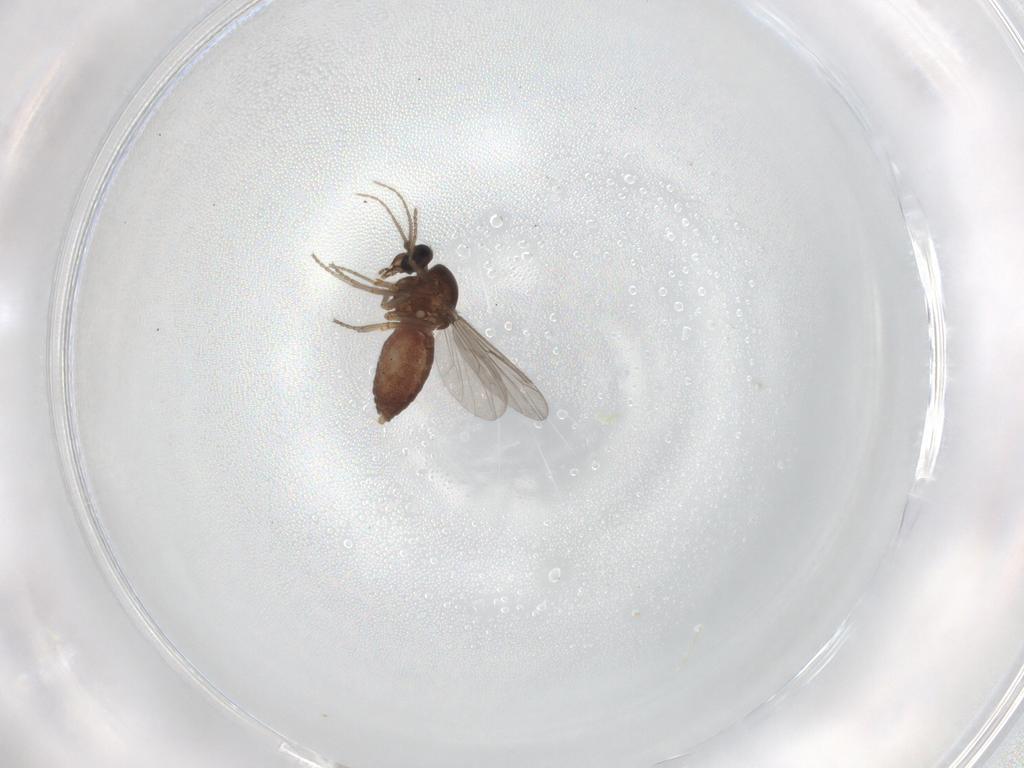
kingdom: Animalia
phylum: Arthropoda
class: Insecta
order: Diptera
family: Ceratopogonidae
